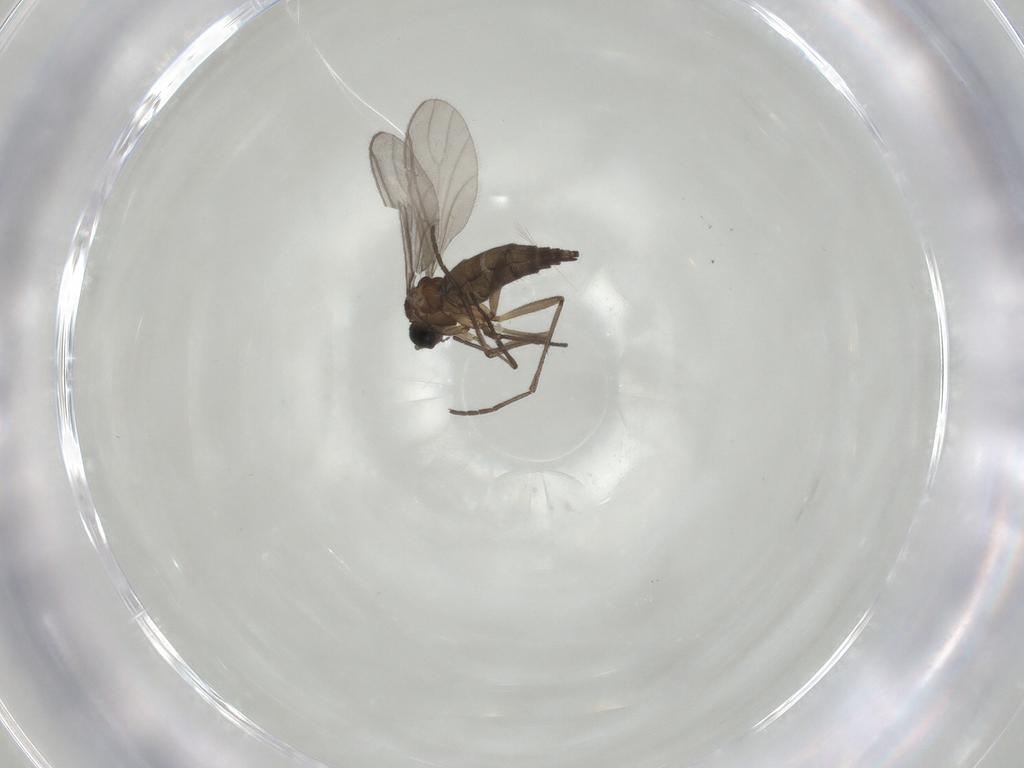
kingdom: Animalia
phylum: Arthropoda
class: Insecta
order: Diptera
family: Sciaridae
